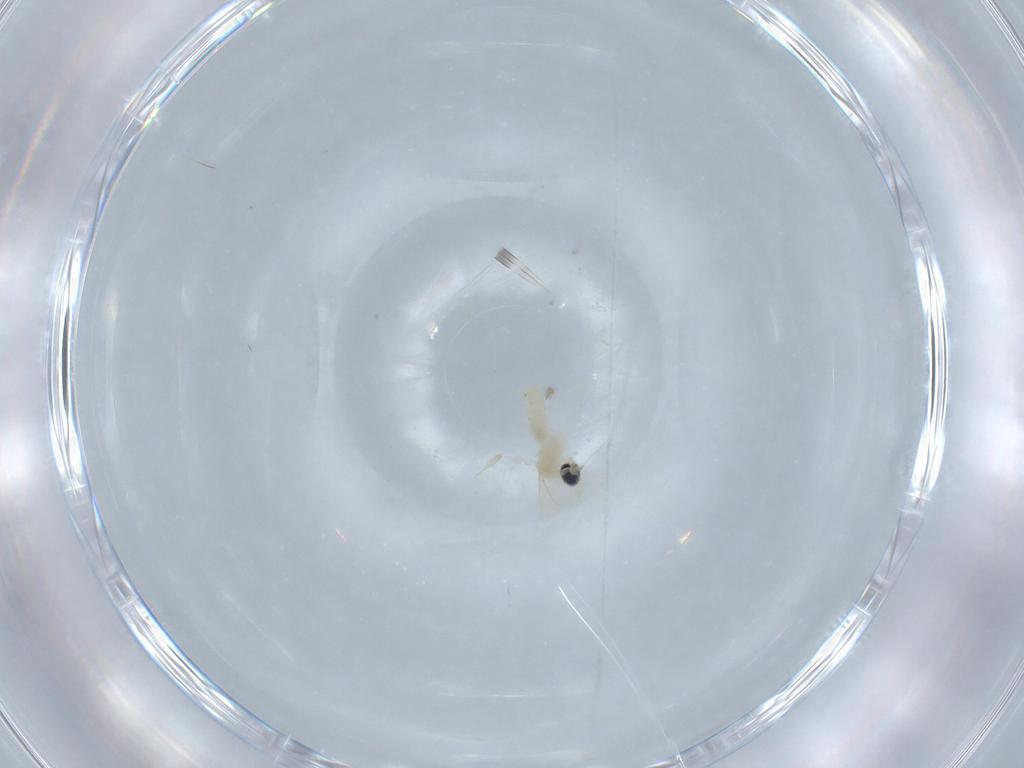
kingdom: Animalia
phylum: Arthropoda
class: Insecta
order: Diptera
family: Cecidomyiidae
